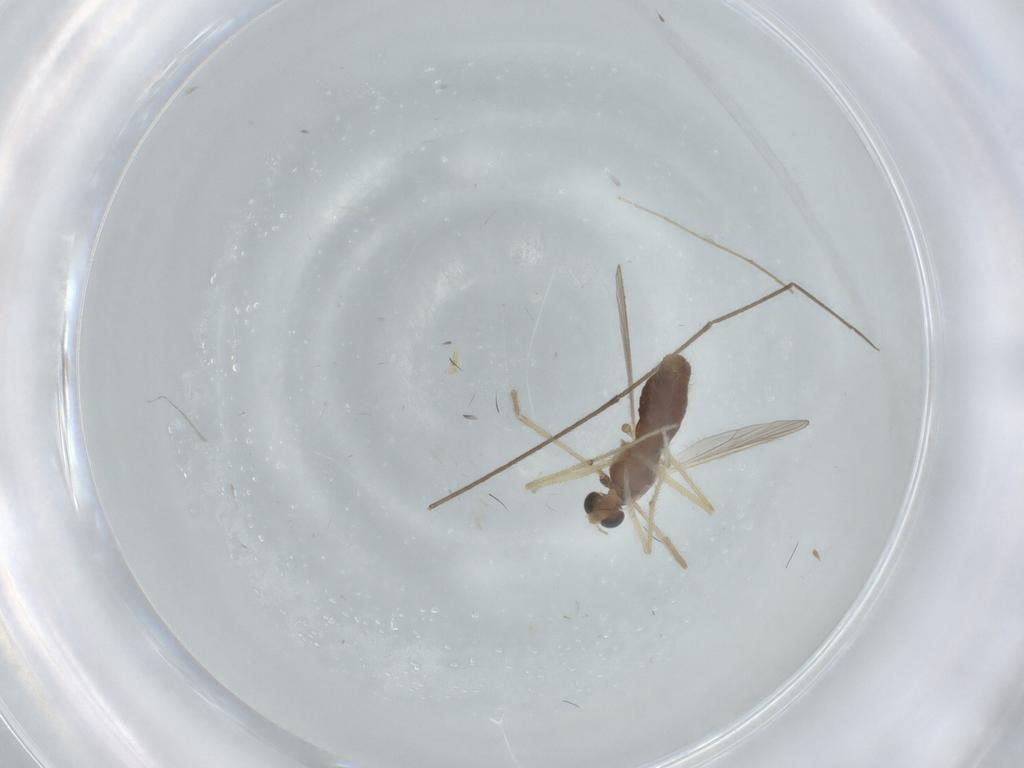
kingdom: Animalia
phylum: Arthropoda
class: Insecta
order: Diptera
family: Chironomidae
